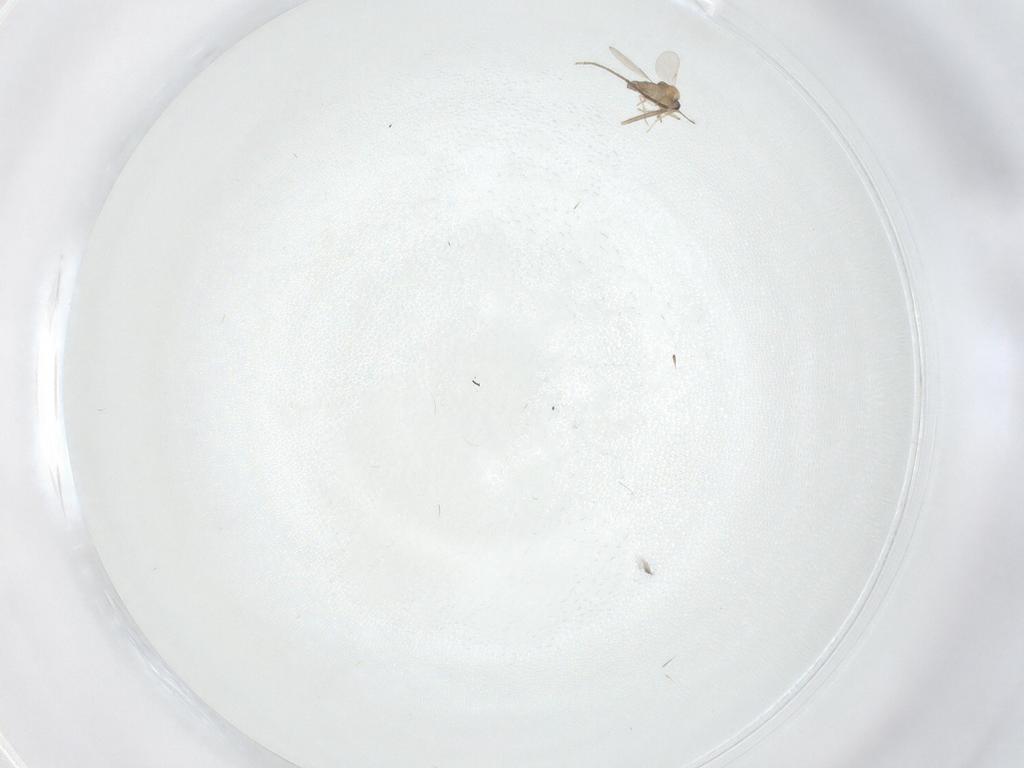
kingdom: Animalia
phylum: Arthropoda
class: Insecta
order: Diptera
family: Chironomidae
